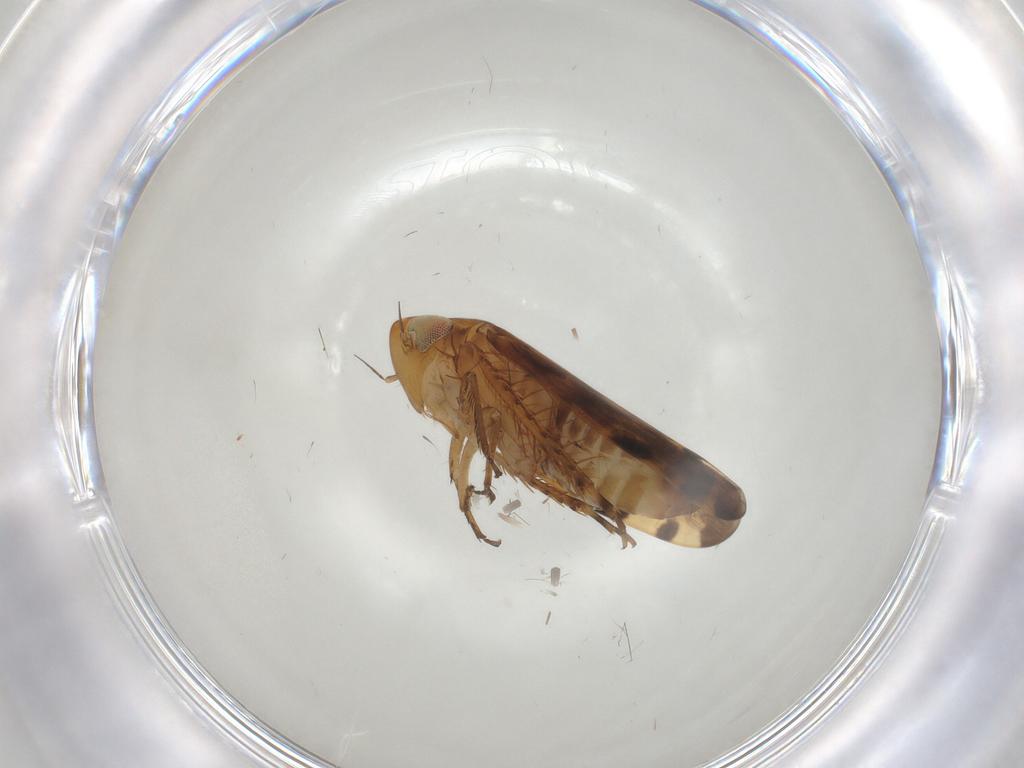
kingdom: Animalia
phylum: Arthropoda
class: Insecta
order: Hemiptera
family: Cicadellidae
